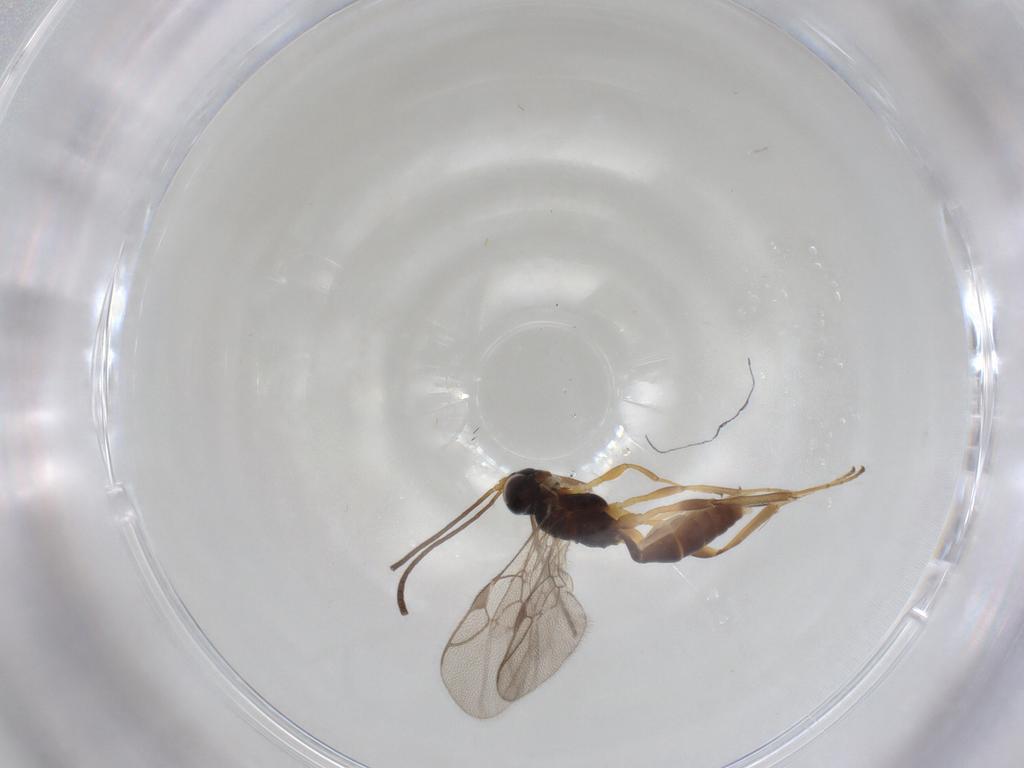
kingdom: Animalia
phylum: Arthropoda
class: Insecta
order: Hymenoptera
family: Ichneumonidae
